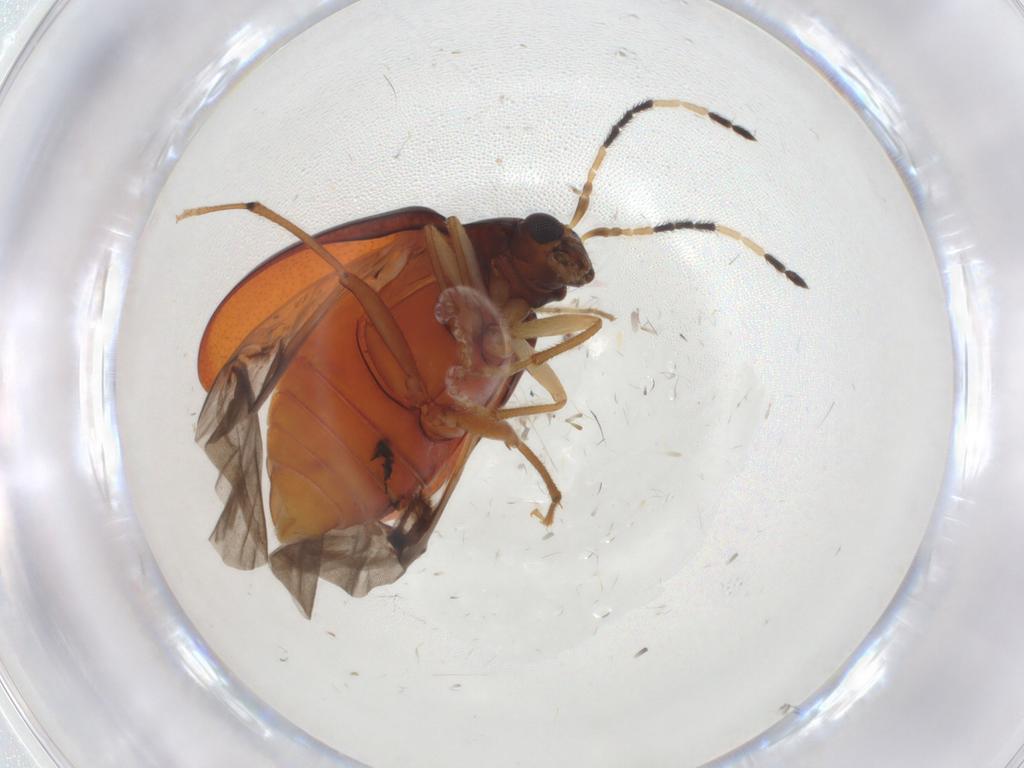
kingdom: Animalia
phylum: Arthropoda
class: Insecta
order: Coleoptera
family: Chrysomelidae
